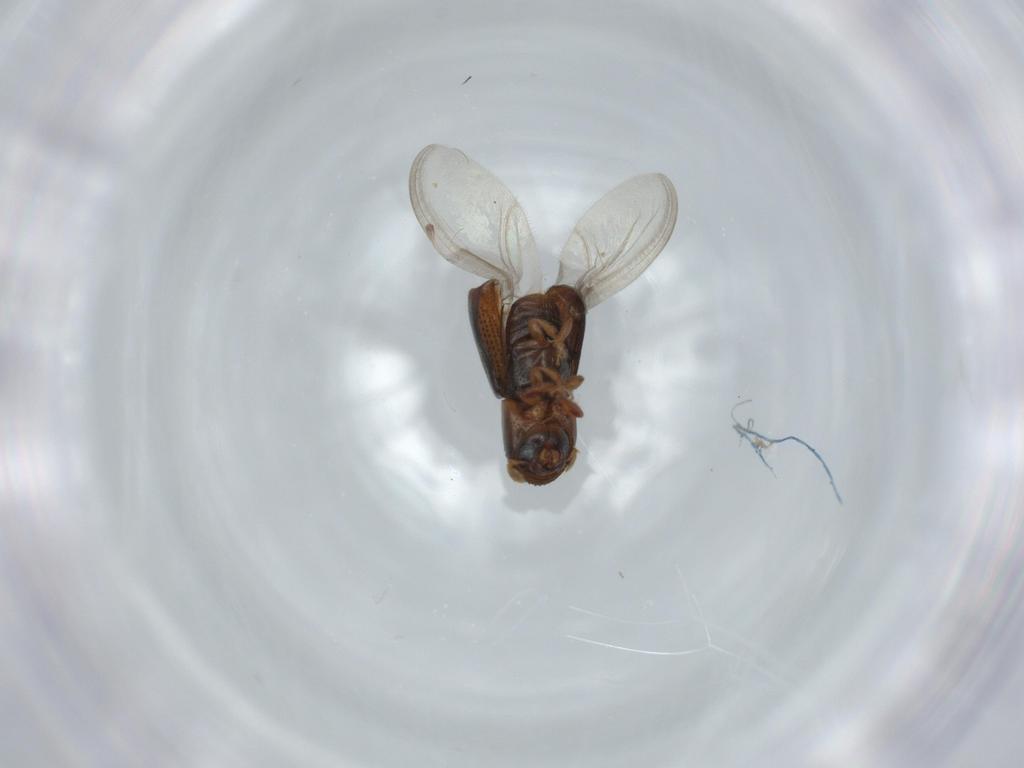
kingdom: Animalia
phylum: Arthropoda
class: Insecta
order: Coleoptera
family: Curculionidae
